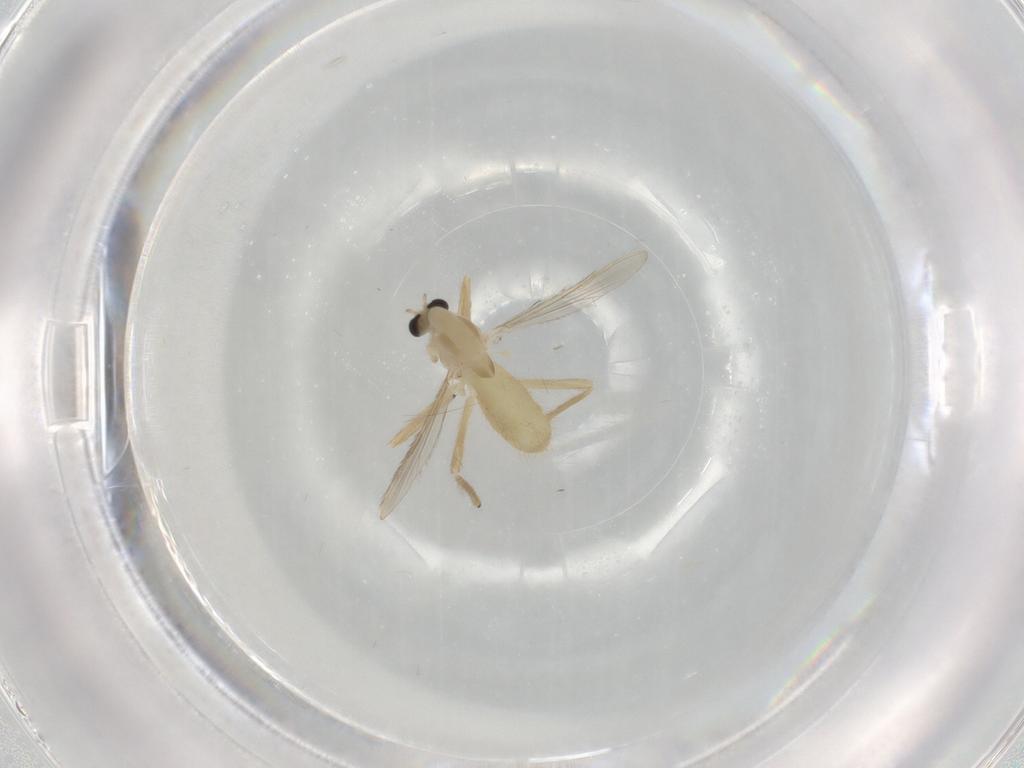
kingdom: Animalia
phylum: Arthropoda
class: Insecta
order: Diptera
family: Chironomidae
